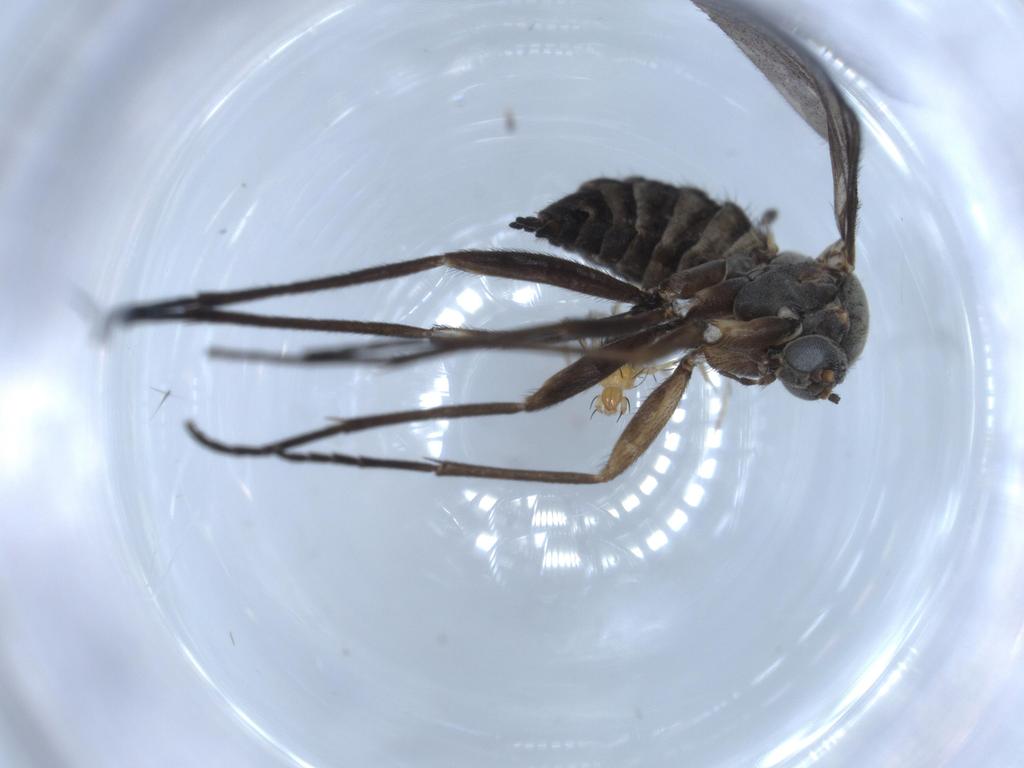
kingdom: Animalia
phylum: Arthropoda
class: Insecta
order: Diptera
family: Sciaridae
